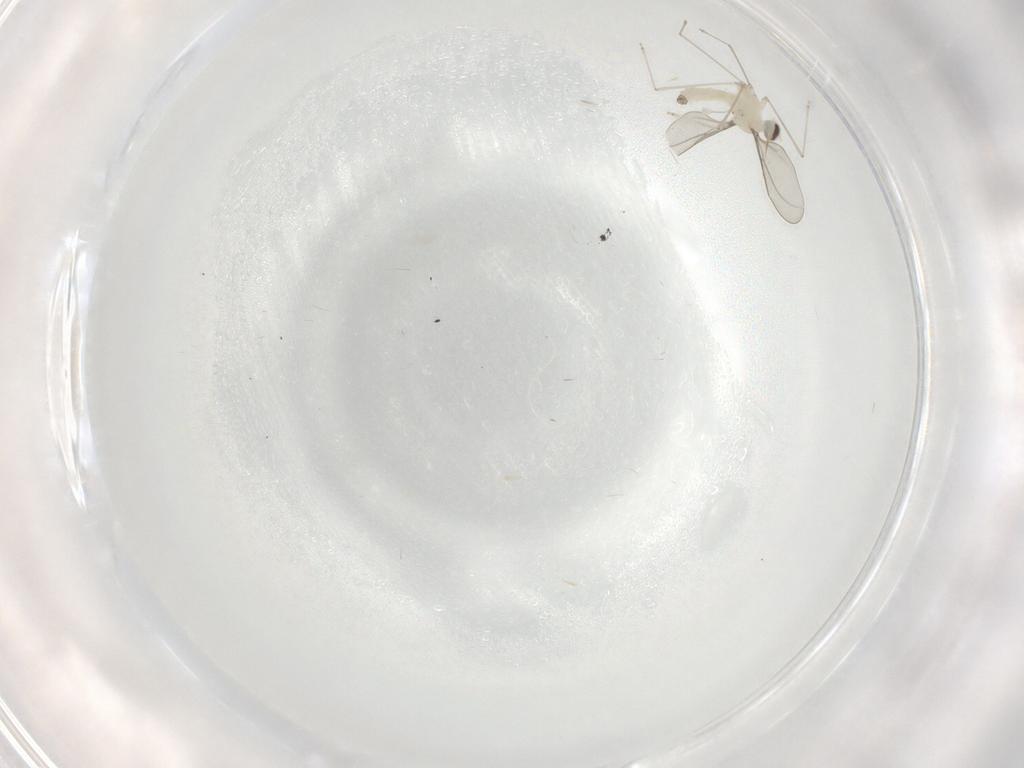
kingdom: Animalia
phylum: Arthropoda
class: Insecta
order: Diptera
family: Cecidomyiidae
